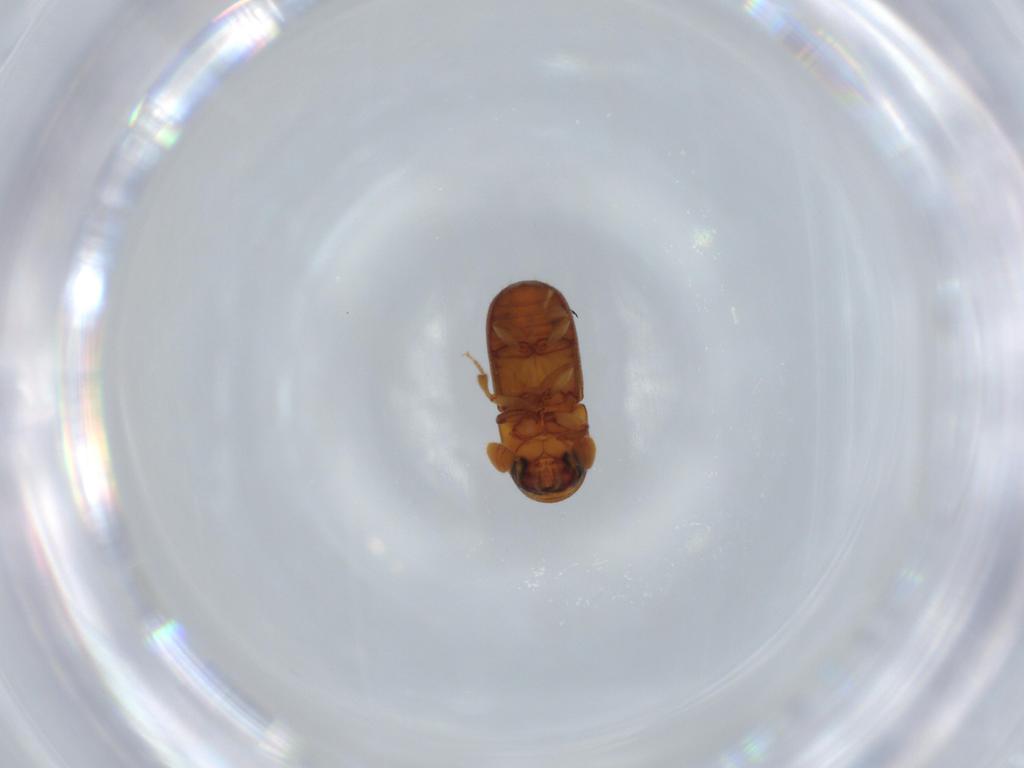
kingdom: Animalia
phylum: Arthropoda
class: Insecta
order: Coleoptera
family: Curculionidae
